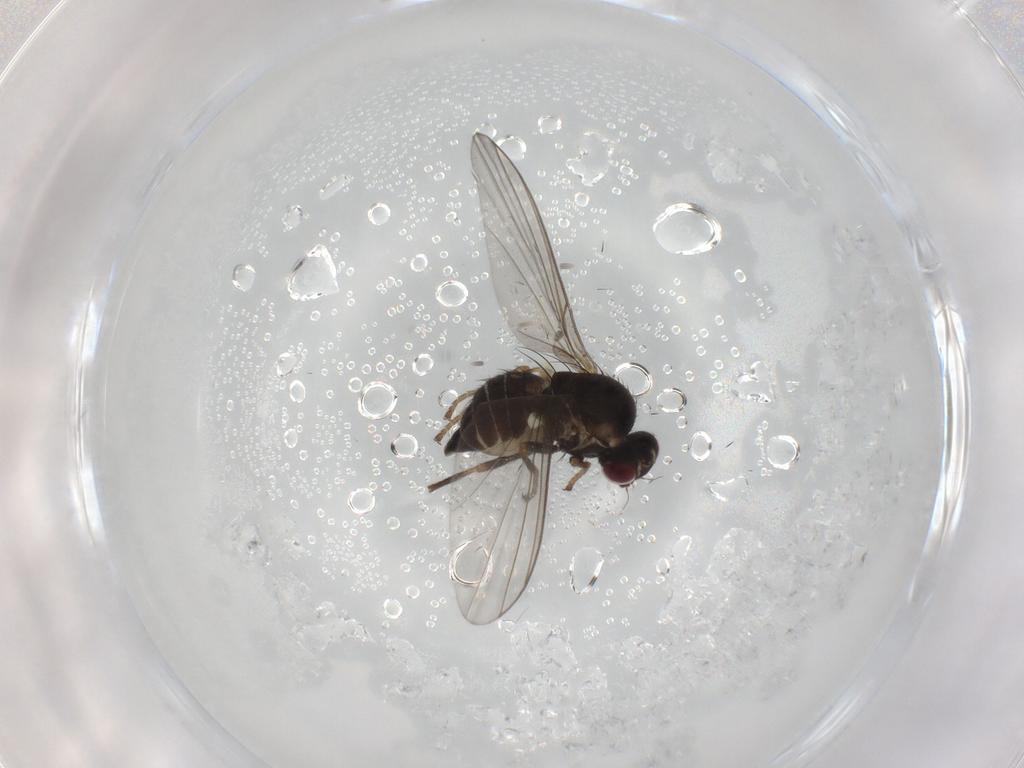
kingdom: Animalia
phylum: Arthropoda
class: Insecta
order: Diptera
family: Agromyzidae
